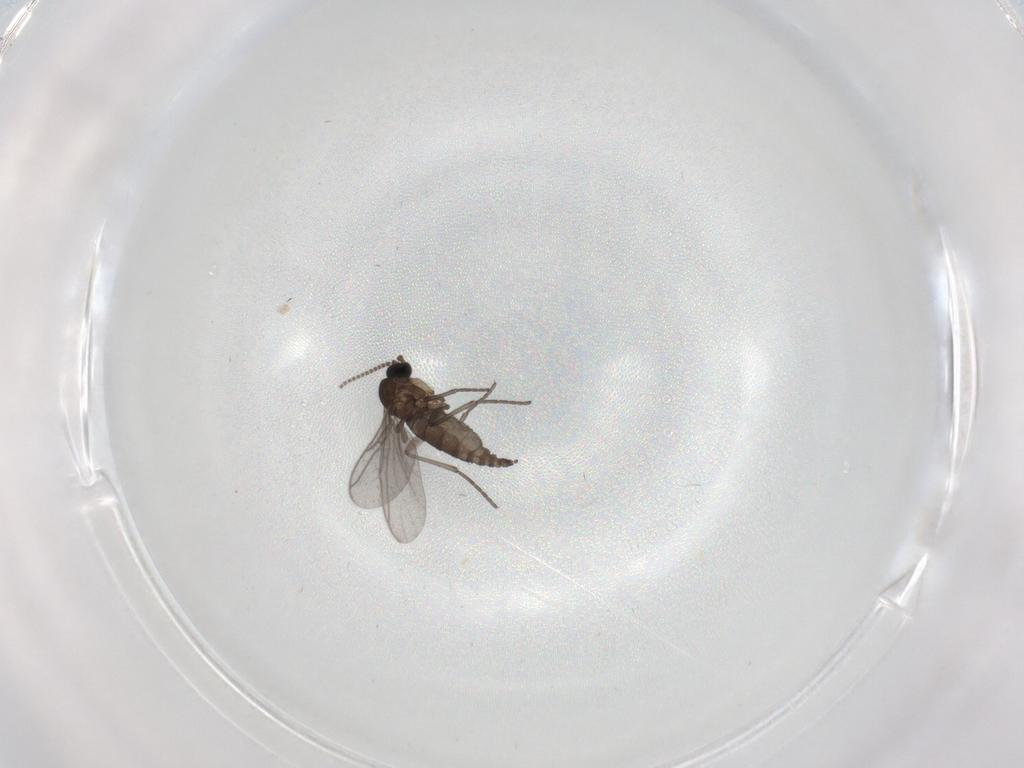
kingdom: Animalia
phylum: Arthropoda
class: Insecta
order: Diptera
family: Sciaridae
